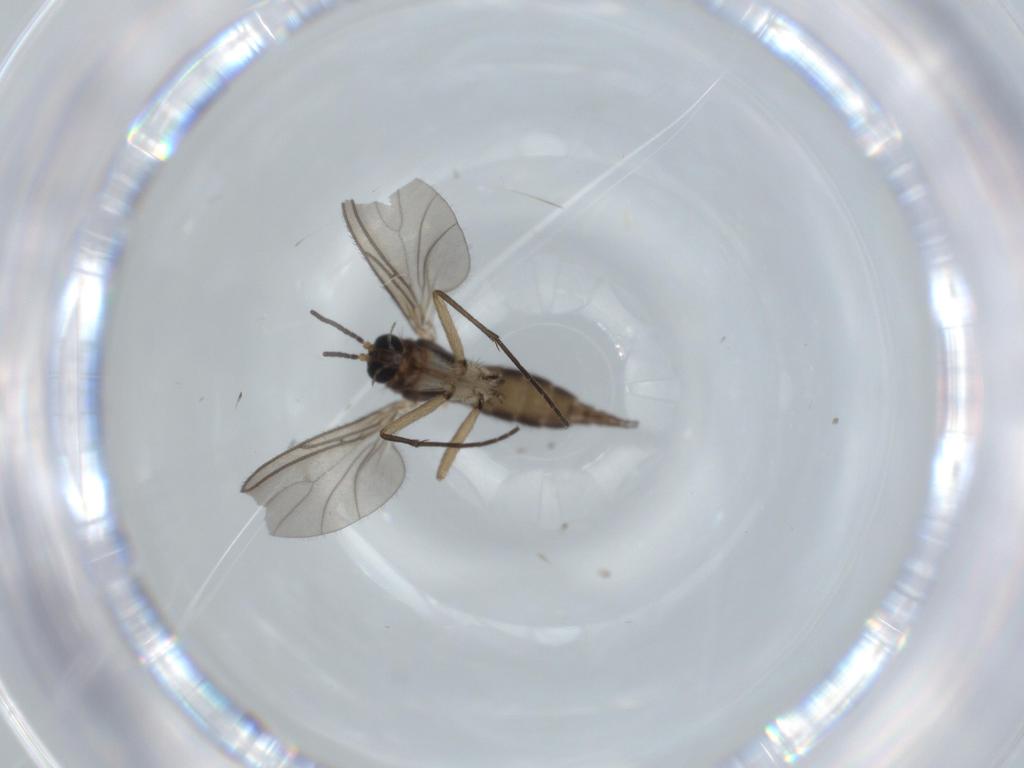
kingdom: Animalia
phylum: Arthropoda
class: Insecta
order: Diptera
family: Sciaridae
